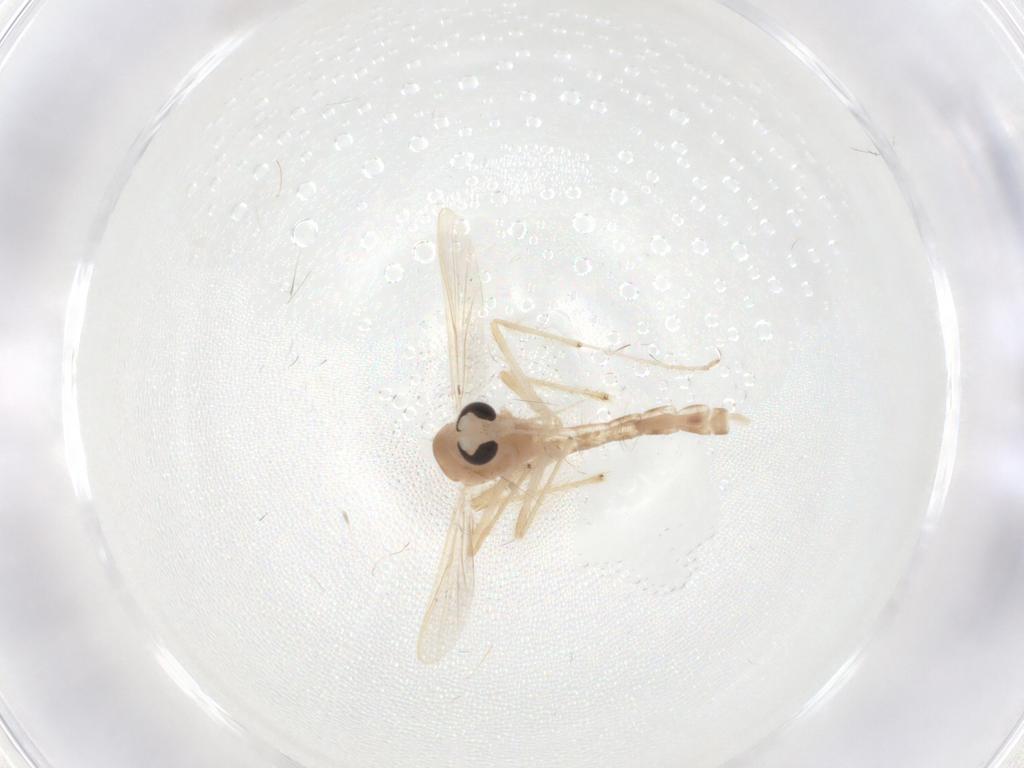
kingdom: Animalia
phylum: Arthropoda
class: Insecta
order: Diptera
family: Chironomidae
